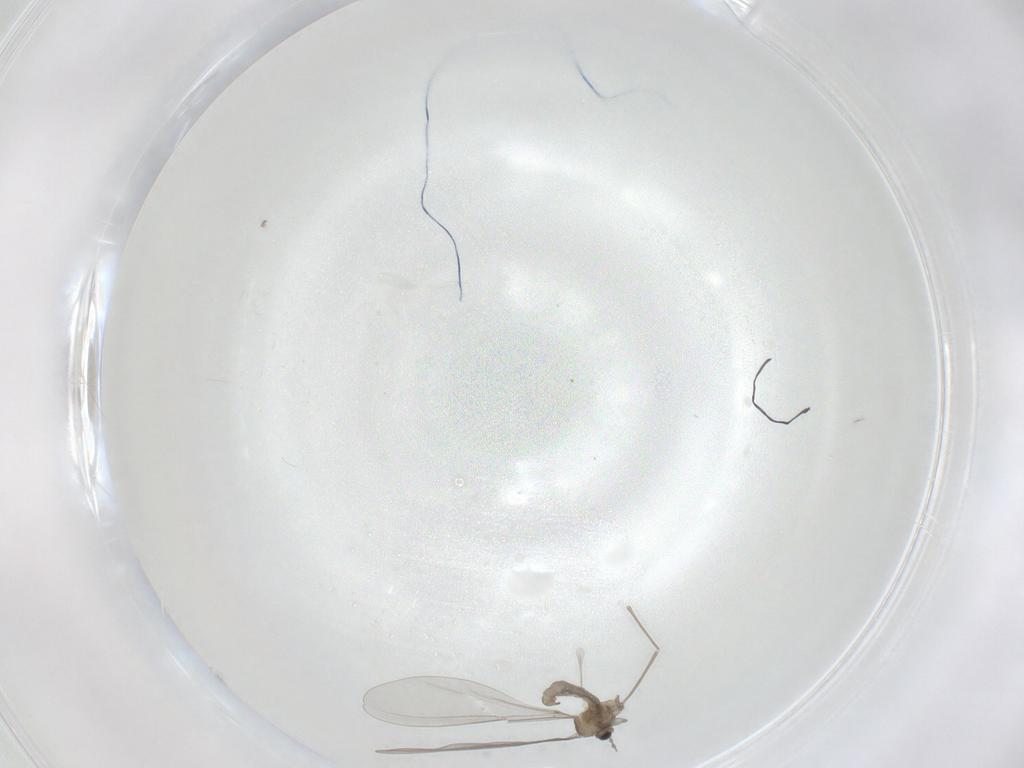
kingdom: Animalia
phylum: Arthropoda
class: Insecta
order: Diptera
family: Cecidomyiidae
